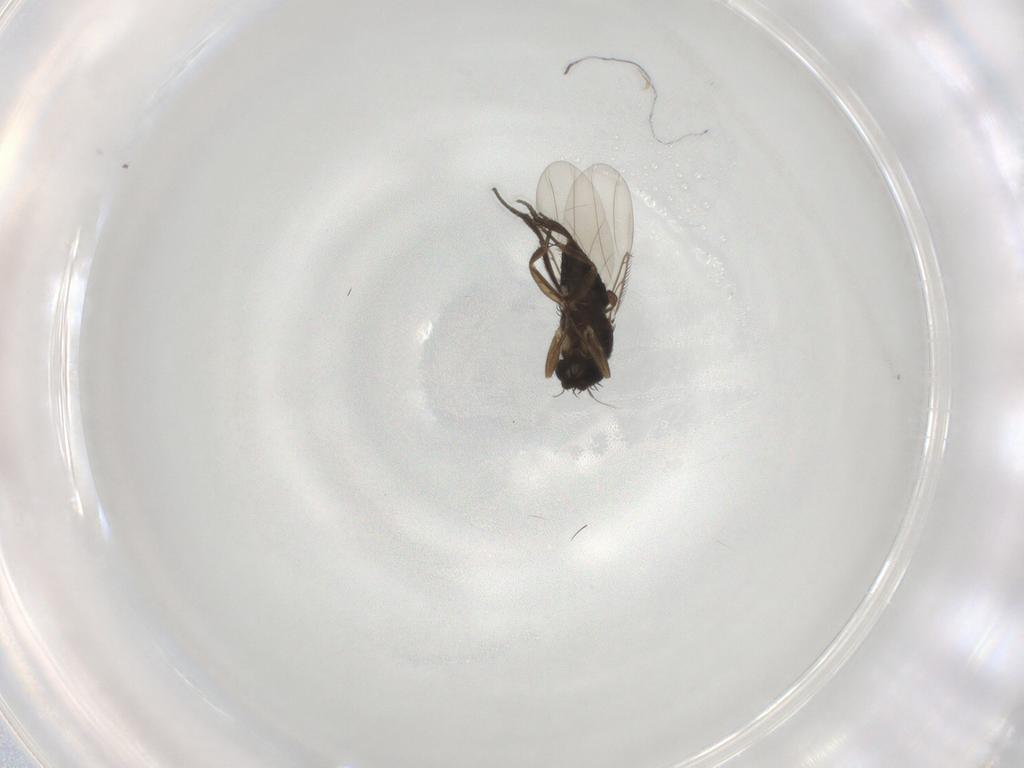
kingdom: Animalia
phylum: Arthropoda
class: Insecta
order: Diptera
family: Phoridae
